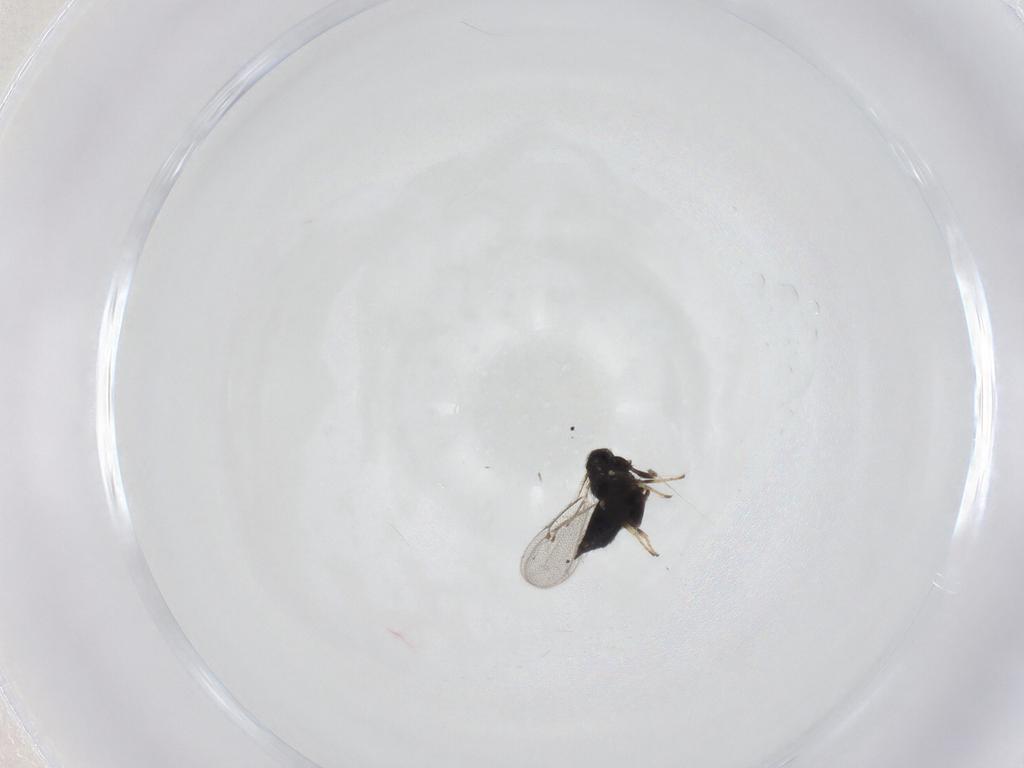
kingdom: Animalia
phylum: Arthropoda
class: Insecta
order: Hymenoptera
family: Eulophidae
